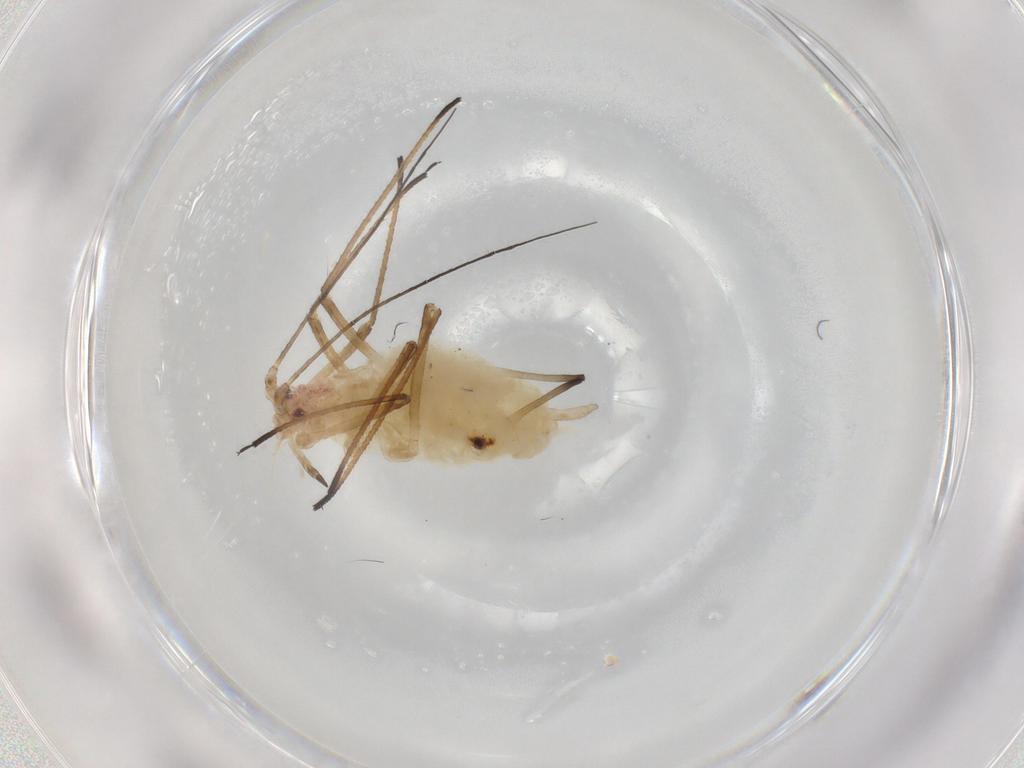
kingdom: Animalia
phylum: Arthropoda
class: Insecta
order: Hemiptera
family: Aphididae
